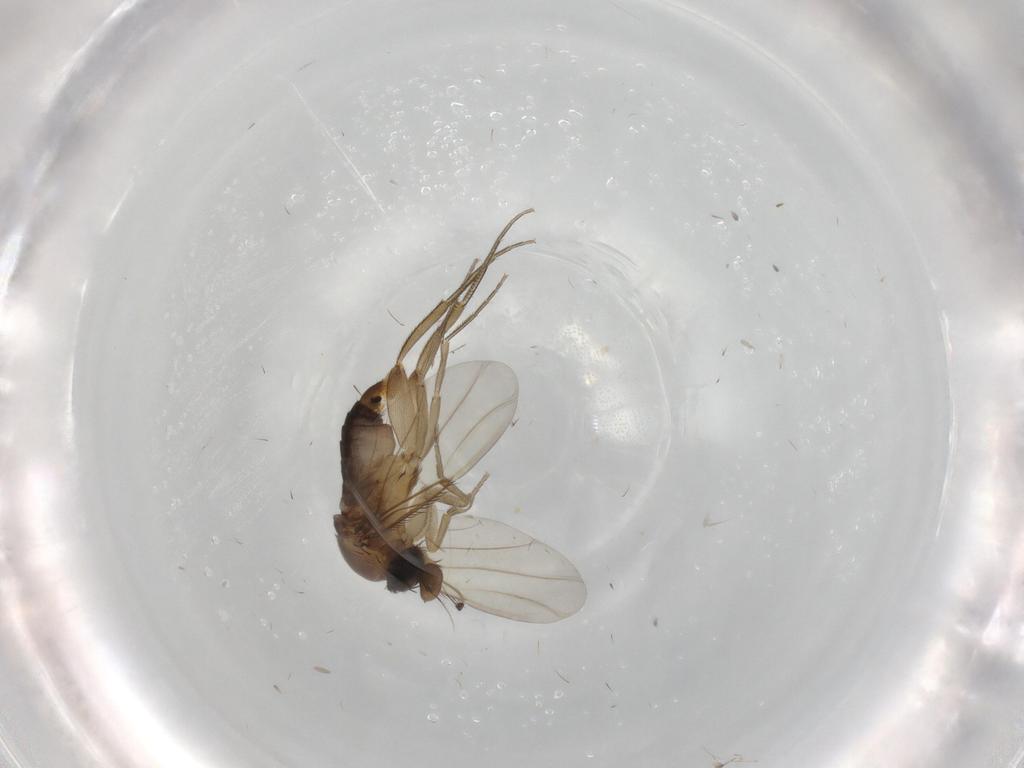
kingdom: Animalia
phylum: Arthropoda
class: Insecta
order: Diptera
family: Phoridae
